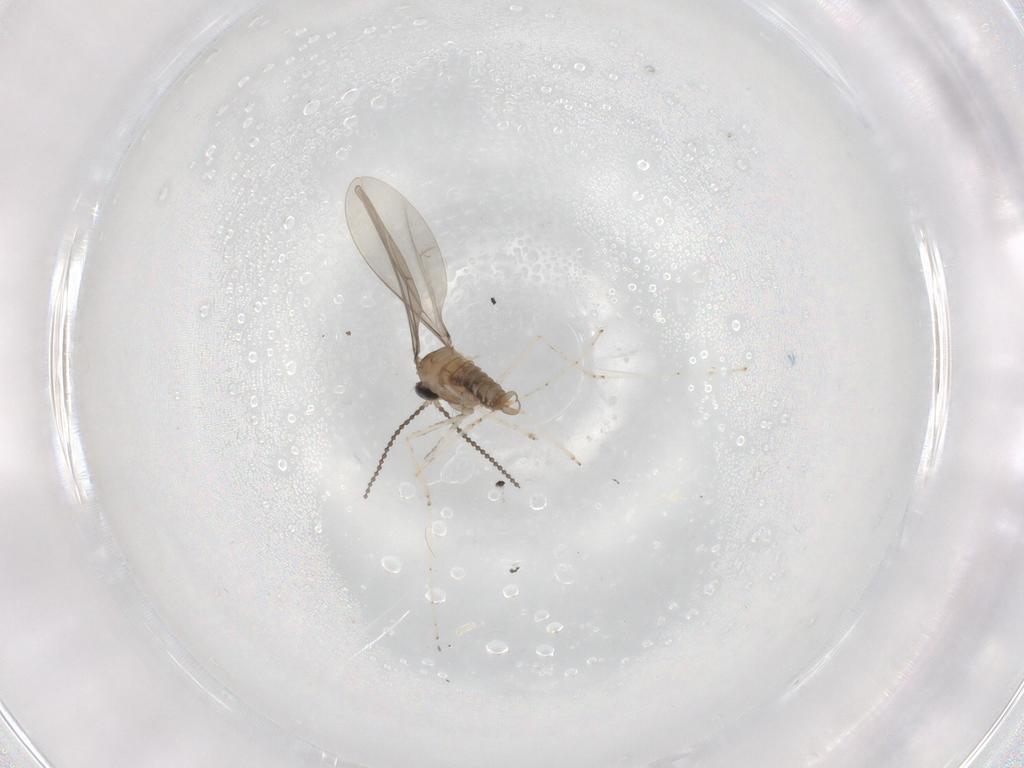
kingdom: Animalia
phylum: Arthropoda
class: Insecta
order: Diptera
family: Cecidomyiidae
